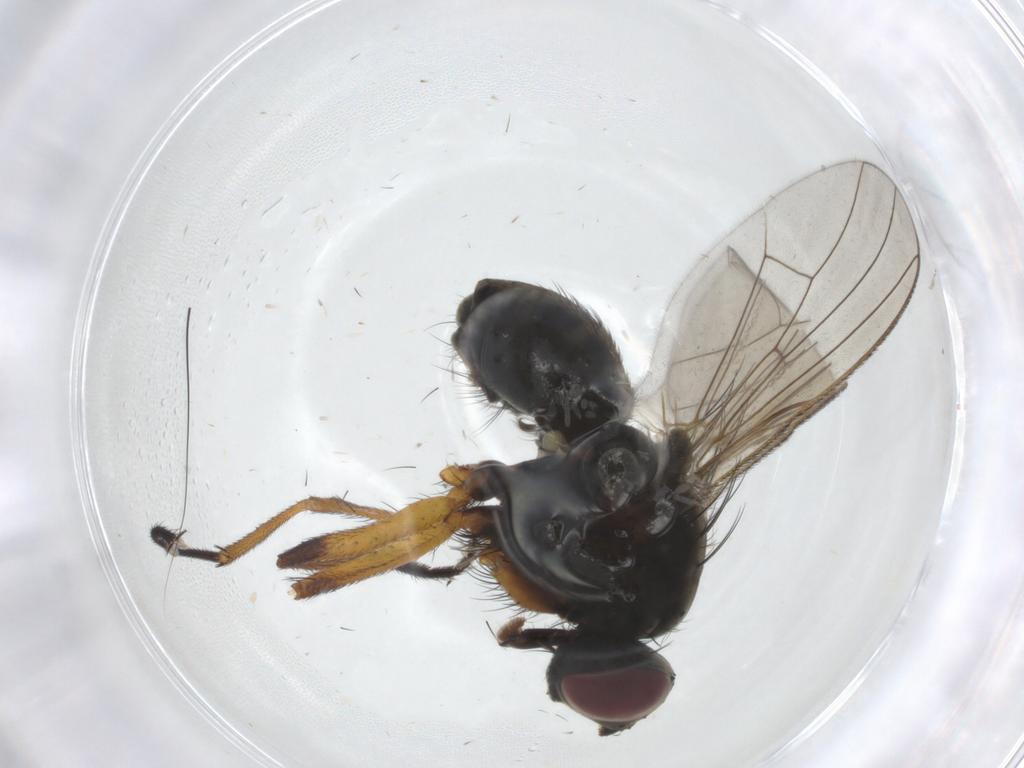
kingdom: Animalia
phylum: Arthropoda
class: Insecta
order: Diptera
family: Muscidae
